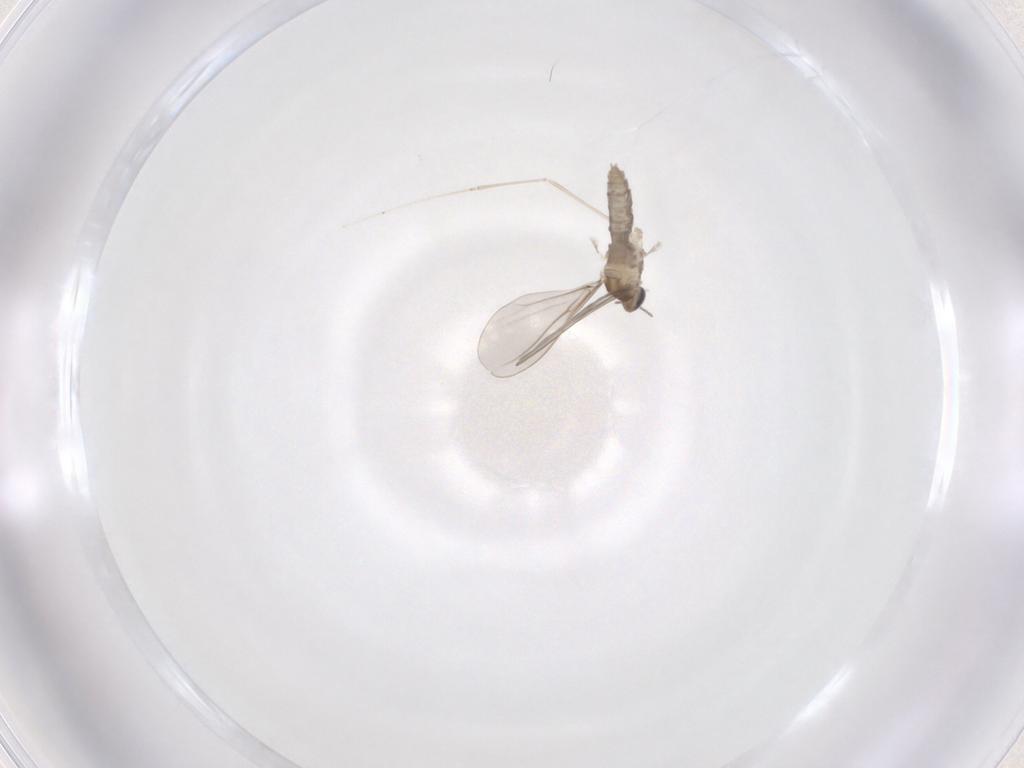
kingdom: Animalia
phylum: Arthropoda
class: Insecta
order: Diptera
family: Cecidomyiidae
